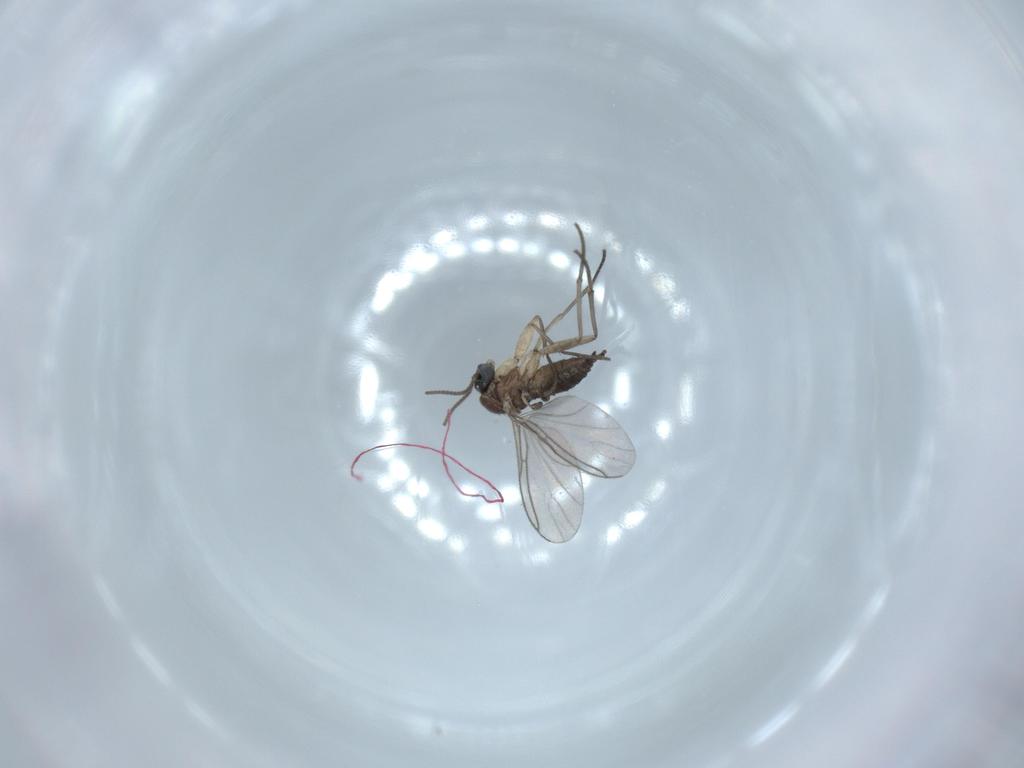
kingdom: Animalia
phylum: Arthropoda
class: Insecta
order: Diptera
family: Sciaridae
